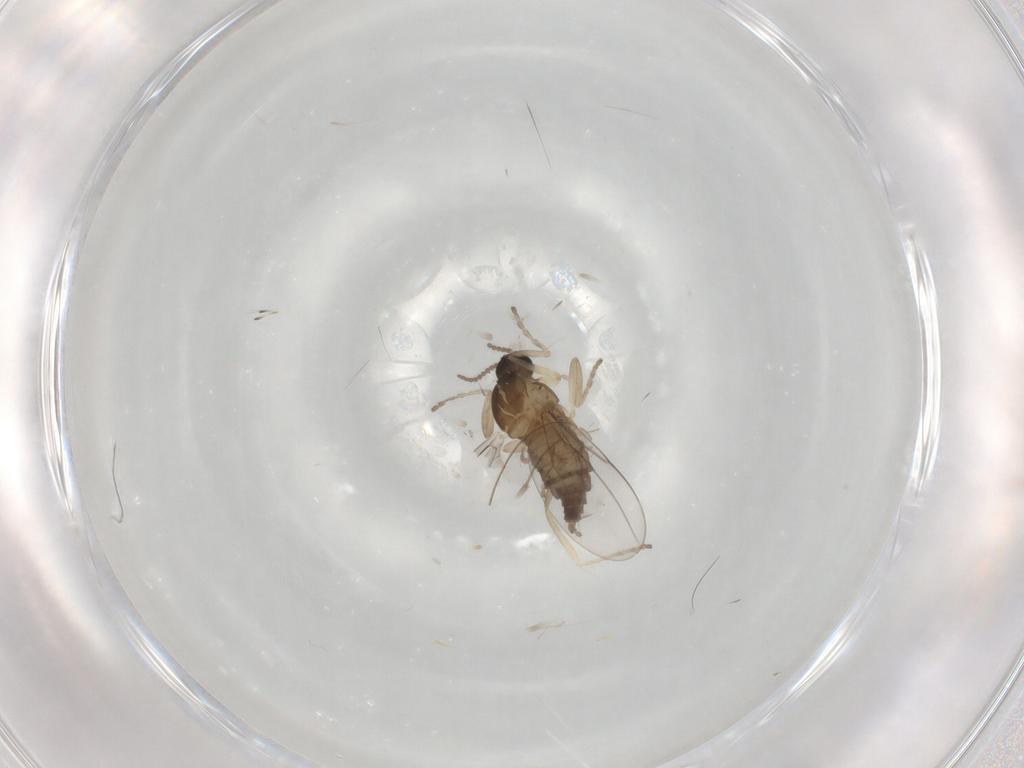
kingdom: Animalia
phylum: Arthropoda
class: Insecta
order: Diptera
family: Cecidomyiidae
